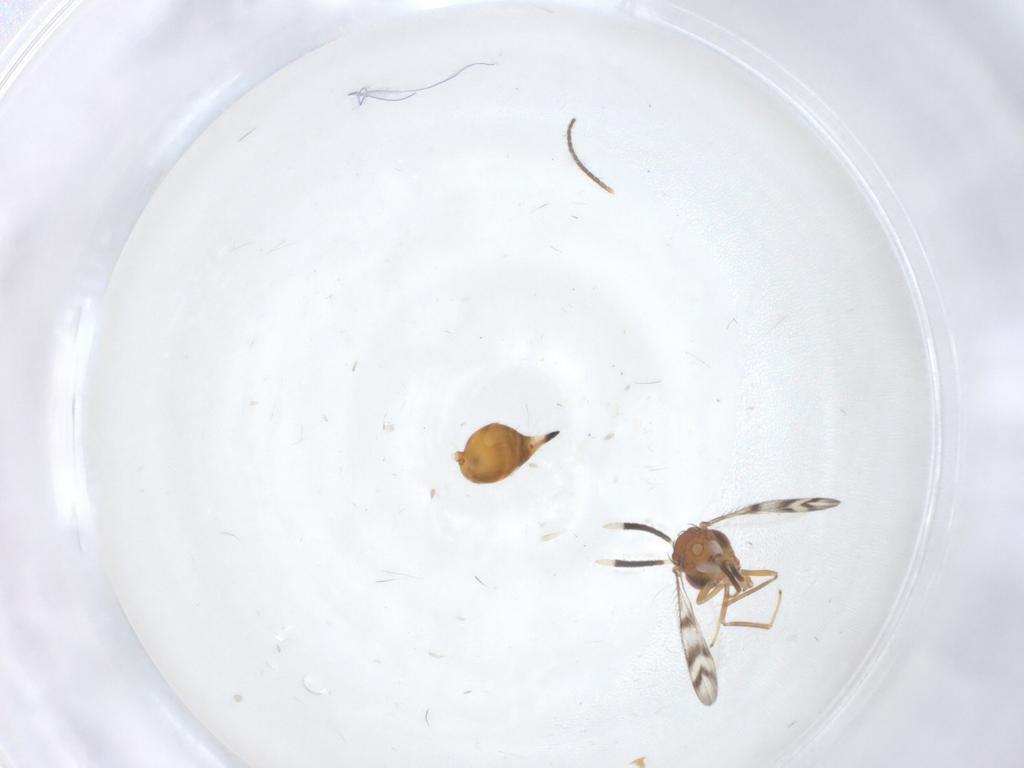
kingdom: Animalia
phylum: Arthropoda
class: Insecta
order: Hymenoptera
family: Diparidae
